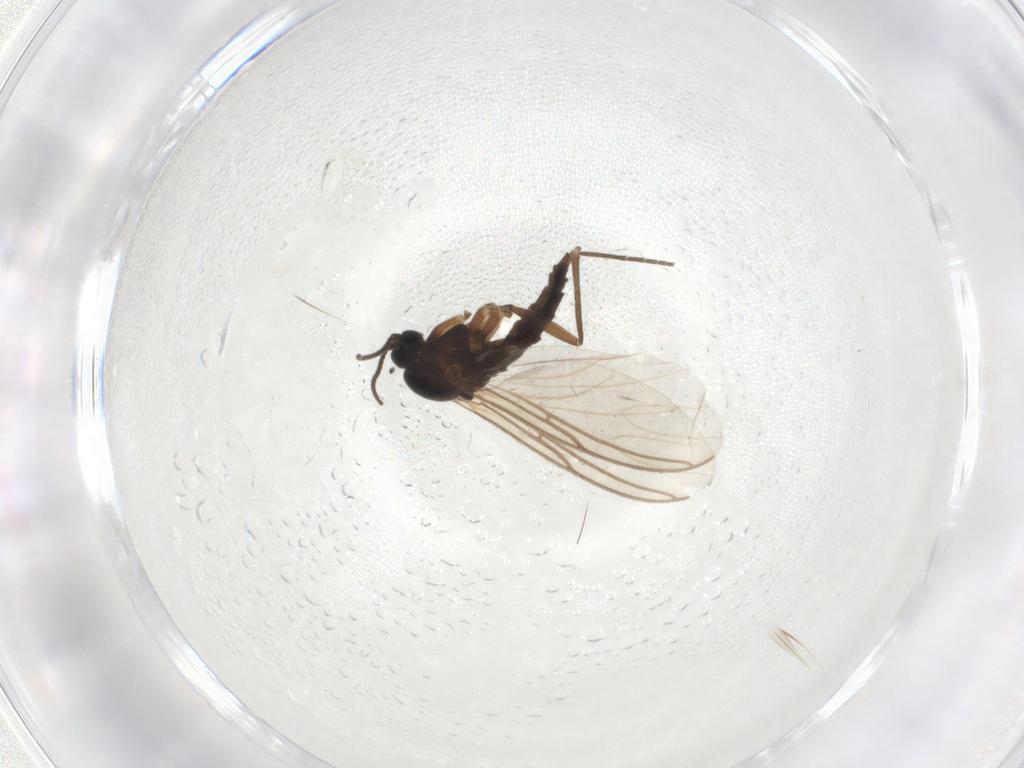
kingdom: Animalia
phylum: Arthropoda
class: Insecta
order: Diptera
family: Sciaridae
